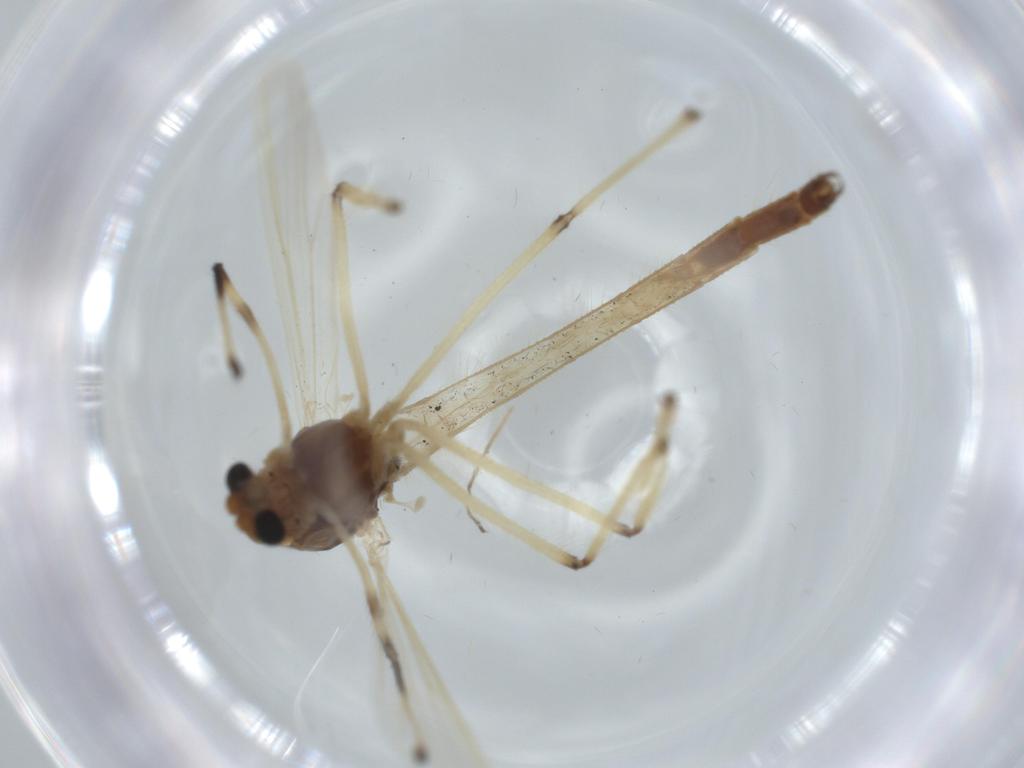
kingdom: Animalia
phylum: Arthropoda
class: Insecta
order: Diptera
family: Chironomidae
